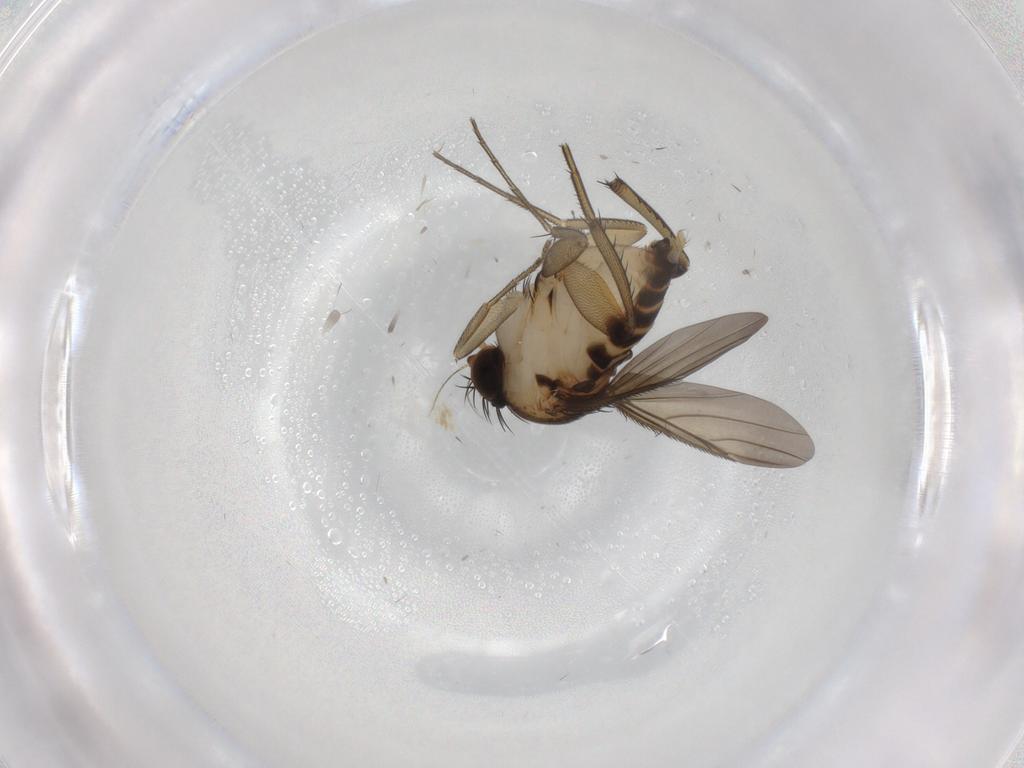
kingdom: Animalia
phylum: Arthropoda
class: Insecta
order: Diptera
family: Phoridae
